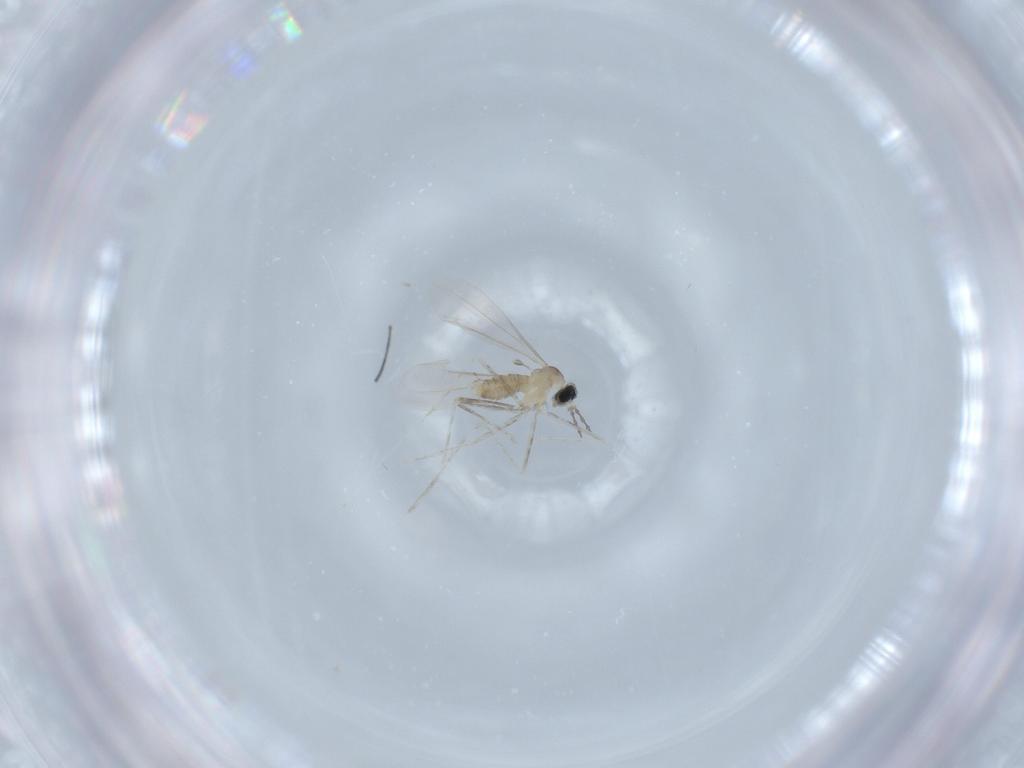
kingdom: Animalia
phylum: Arthropoda
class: Insecta
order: Diptera
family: Cecidomyiidae
